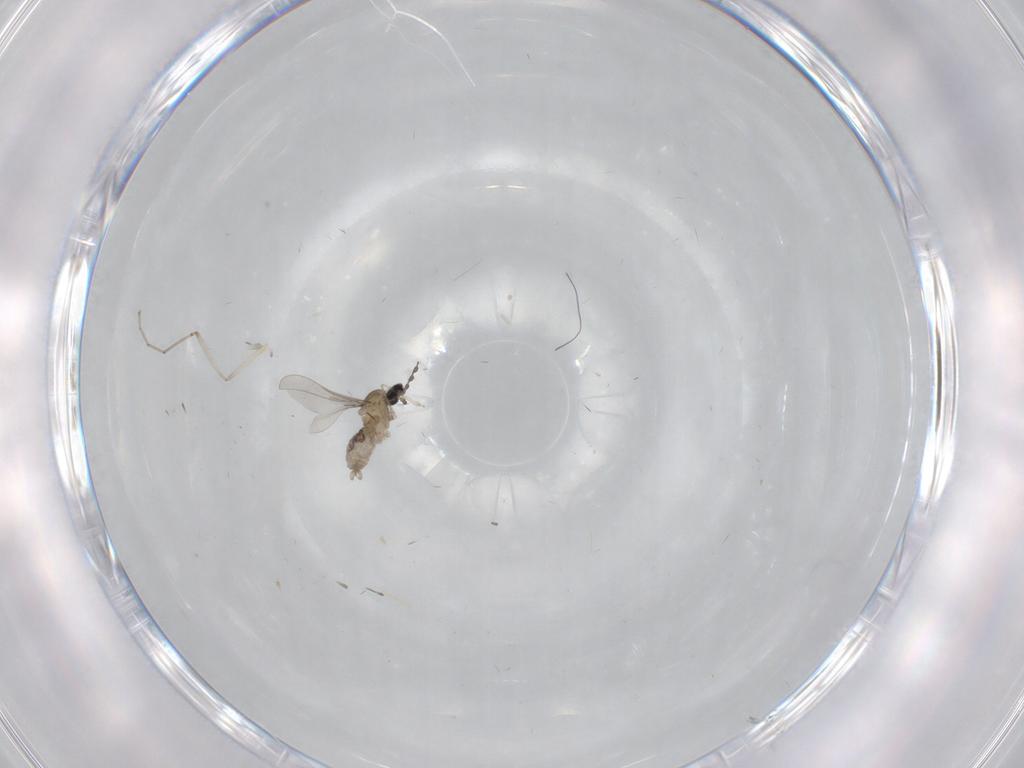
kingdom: Animalia
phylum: Arthropoda
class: Insecta
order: Diptera
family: Cecidomyiidae
